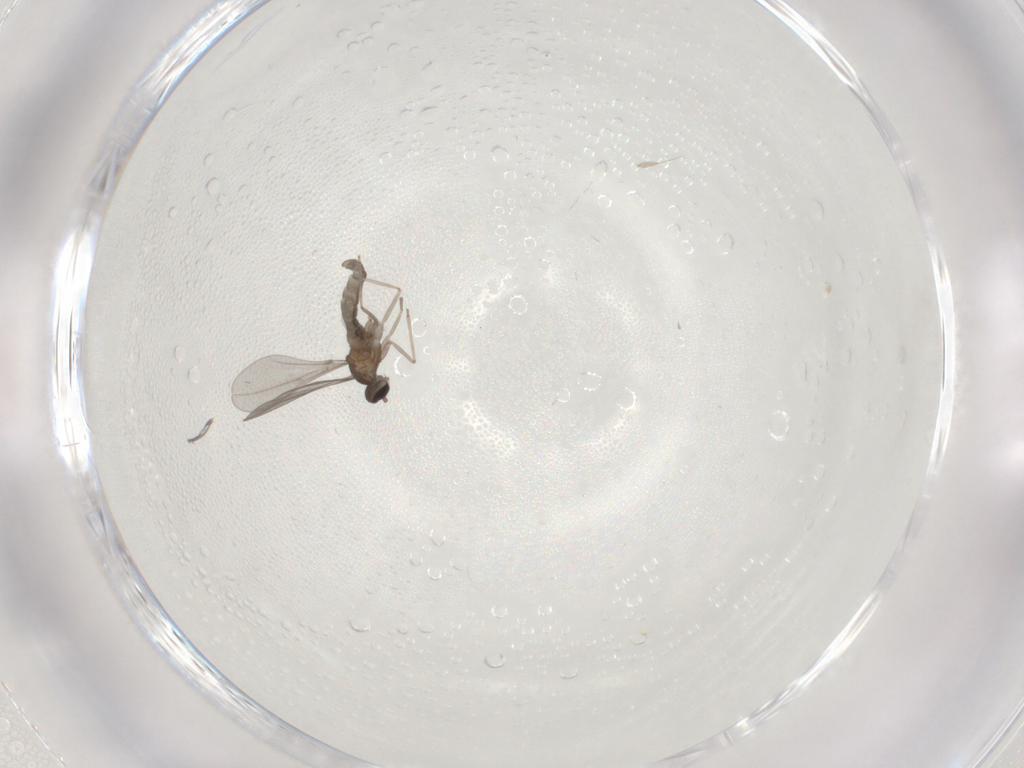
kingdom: Animalia
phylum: Arthropoda
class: Insecta
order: Diptera
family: Cecidomyiidae
